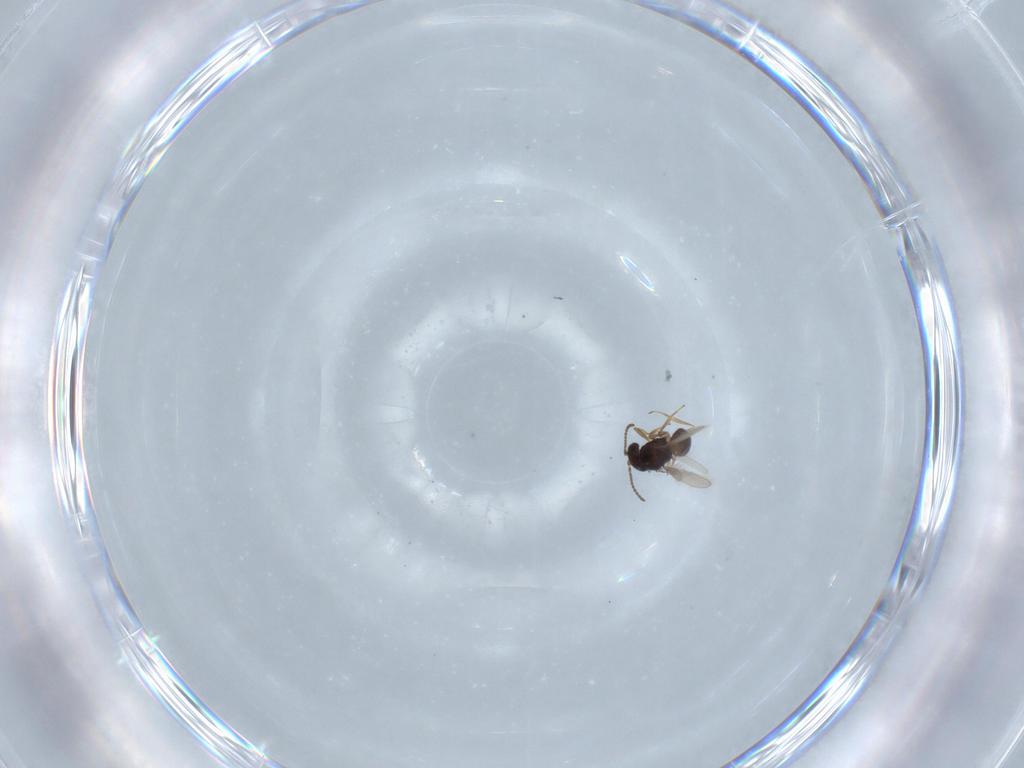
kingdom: Animalia
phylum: Arthropoda
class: Insecta
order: Hymenoptera
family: Scelionidae
